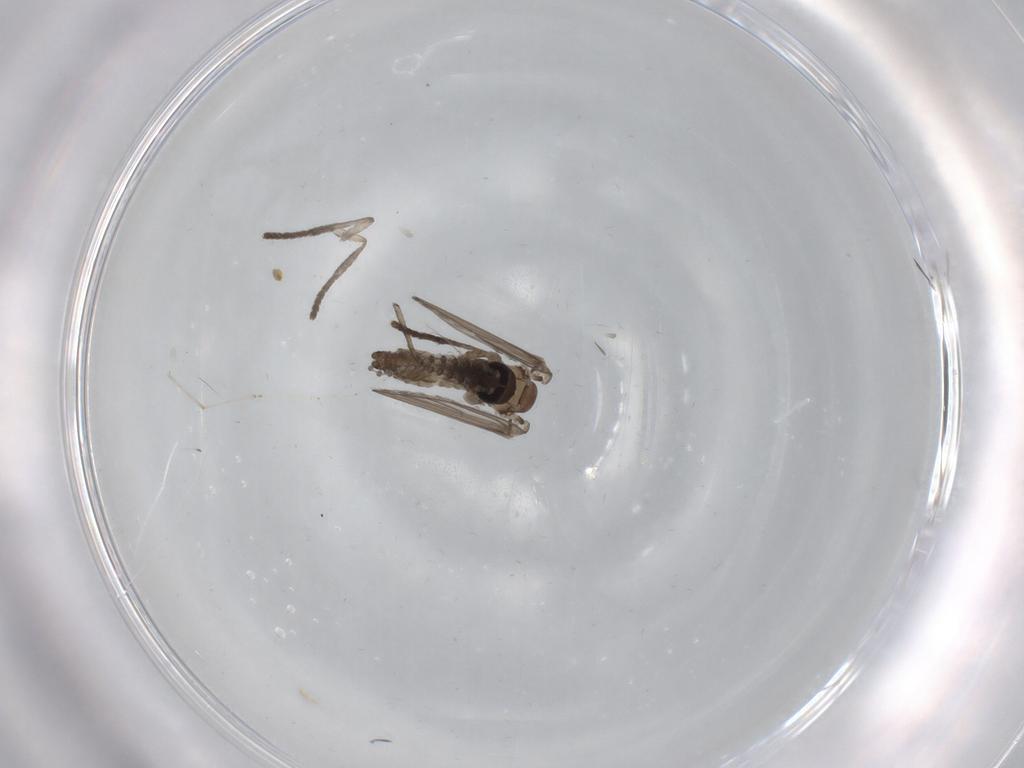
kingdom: Animalia
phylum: Arthropoda
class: Insecta
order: Diptera
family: Psychodidae
